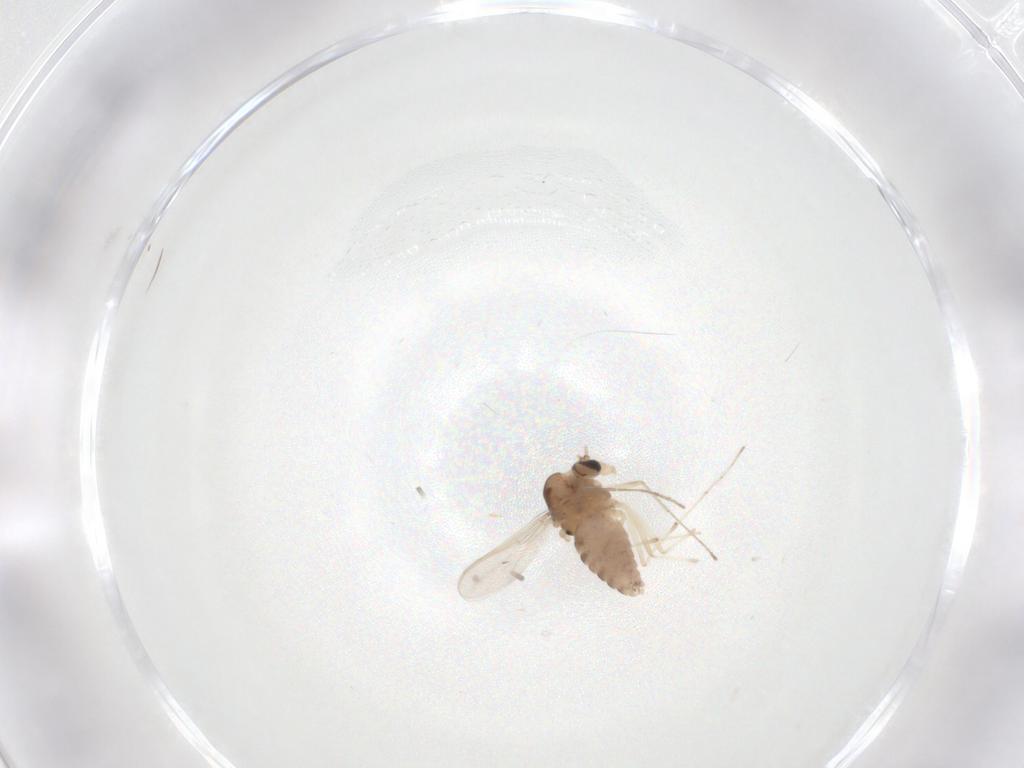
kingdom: Animalia
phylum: Arthropoda
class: Insecta
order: Diptera
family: Chironomidae
